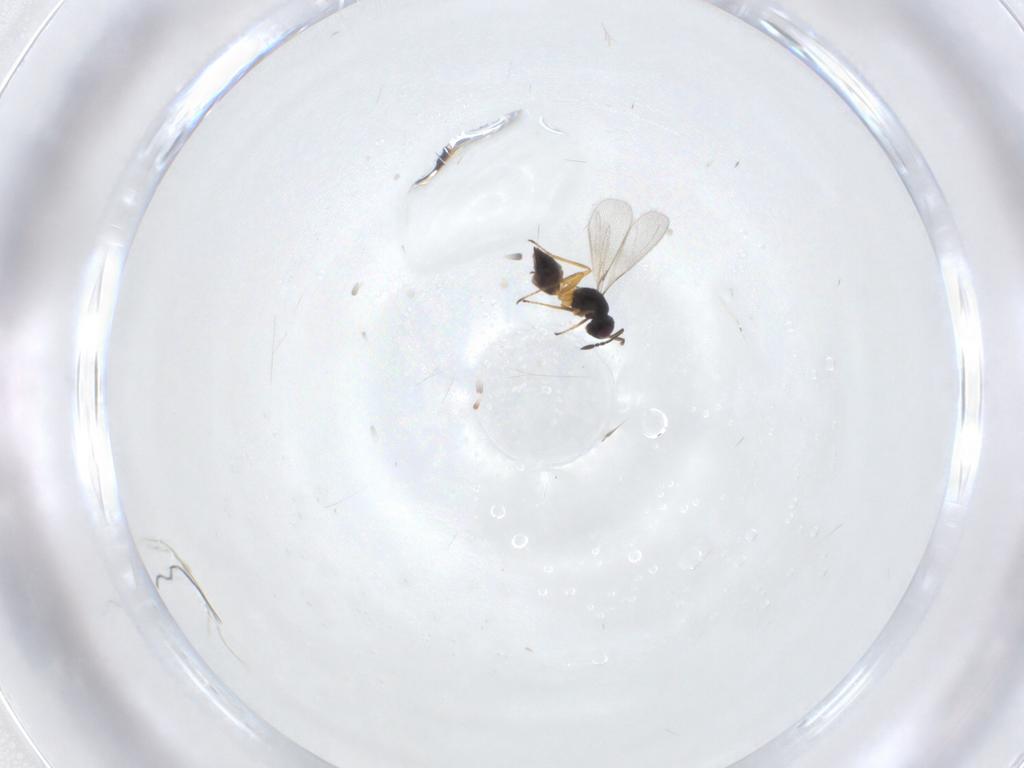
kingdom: Animalia
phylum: Arthropoda
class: Insecta
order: Hymenoptera
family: Mymaridae
